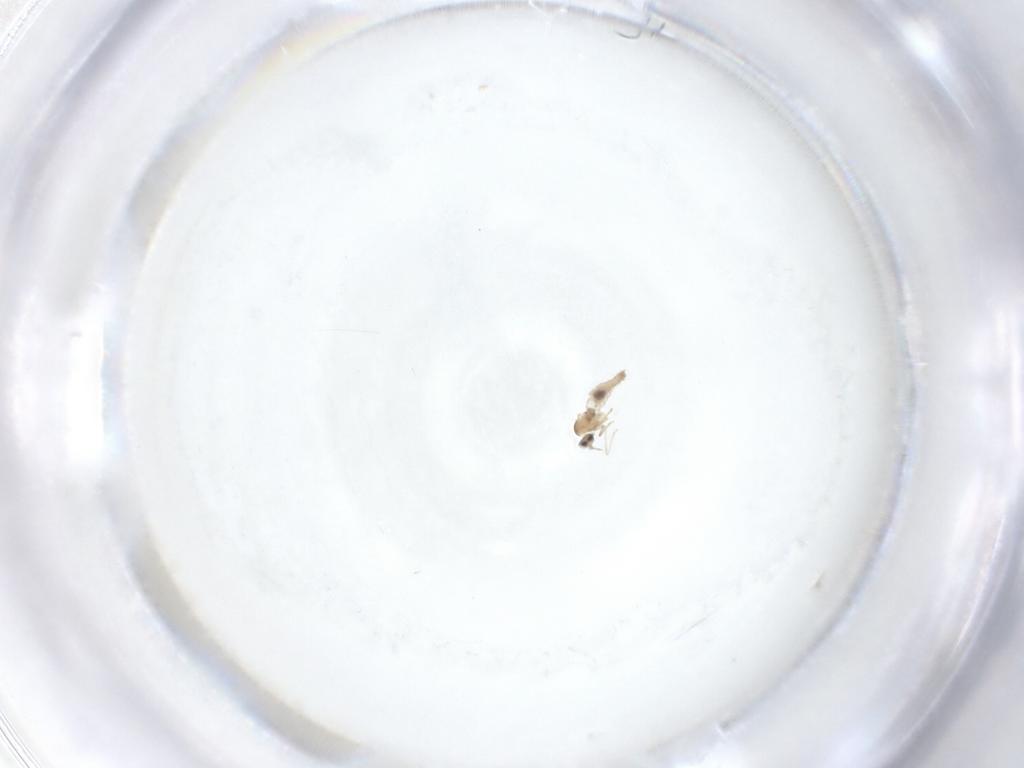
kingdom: Animalia
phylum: Arthropoda
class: Insecta
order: Diptera
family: Cecidomyiidae
